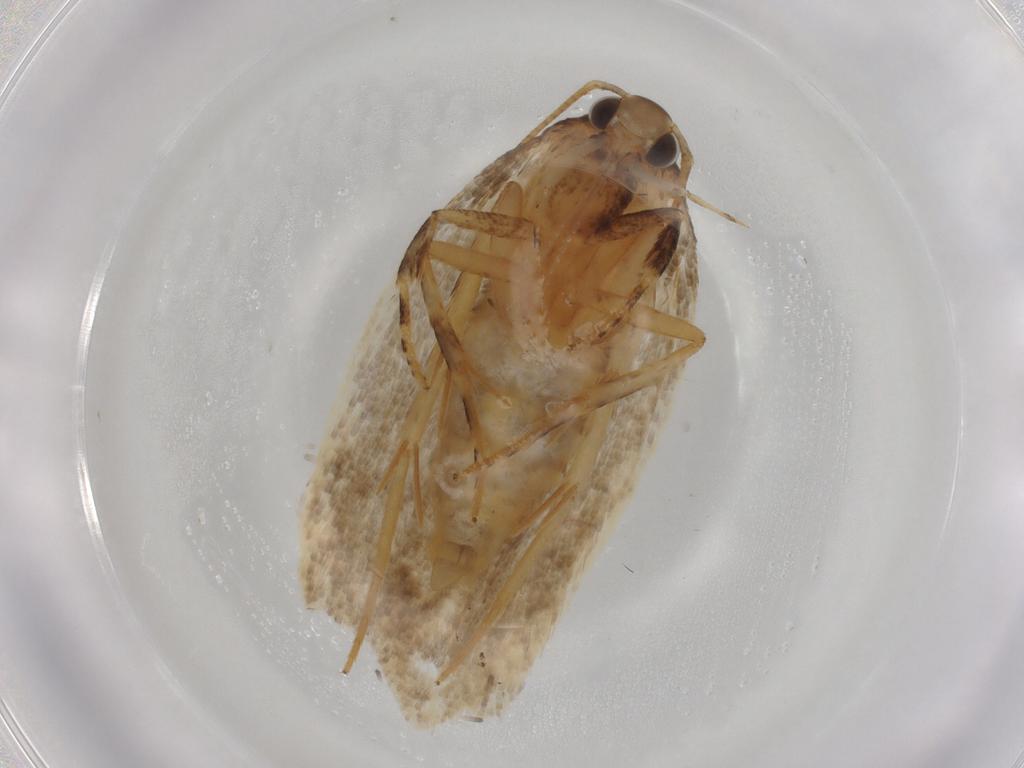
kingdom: Animalia
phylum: Arthropoda
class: Insecta
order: Lepidoptera
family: Gelechiidae
